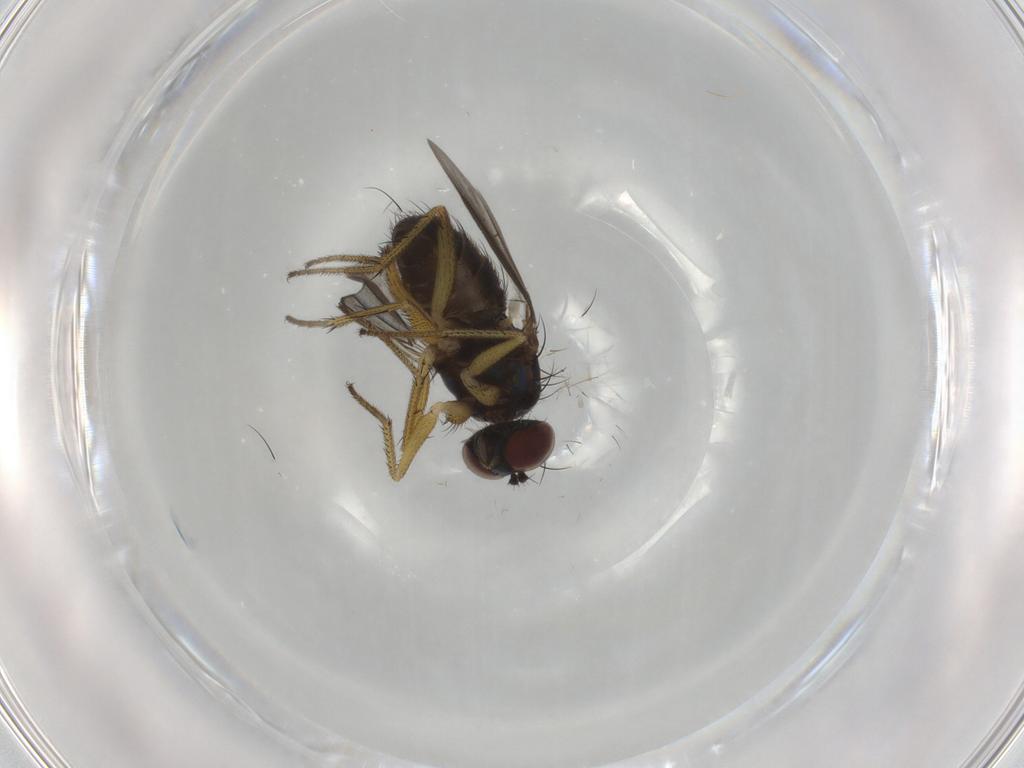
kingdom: Animalia
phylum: Arthropoda
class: Insecta
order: Diptera
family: Dolichopodidae
